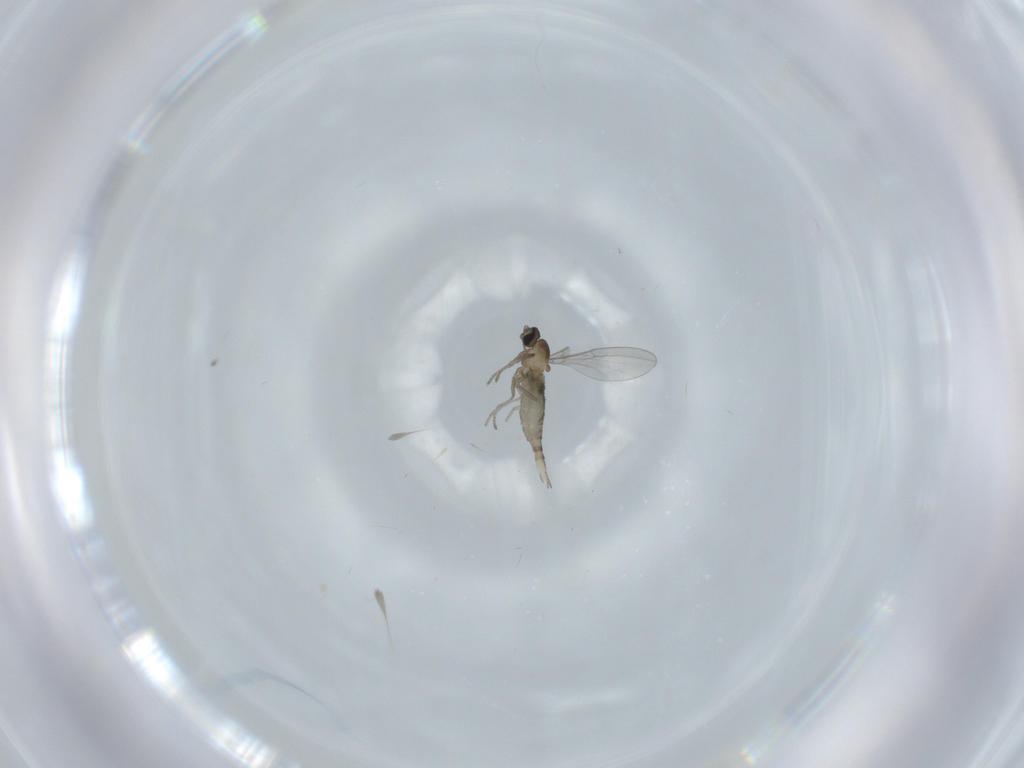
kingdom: Animalia
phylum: Arthropoda
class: Insecta
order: Diptera
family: Cecidomyiidae
